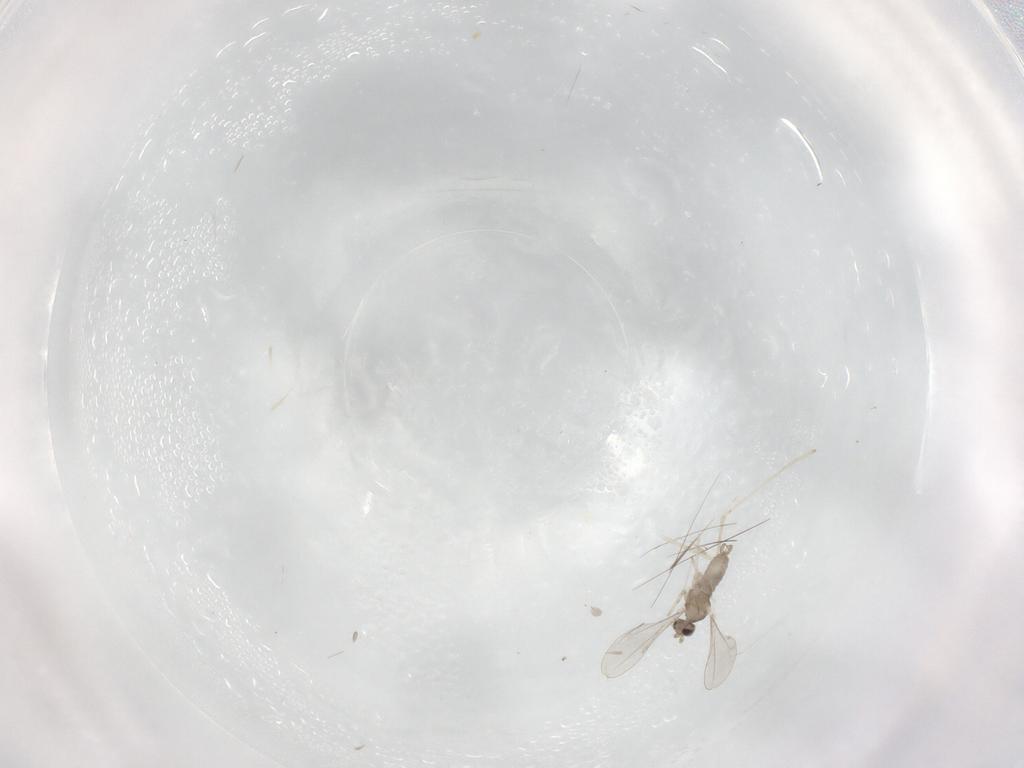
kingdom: Animalia
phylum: Arthropoda
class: Insecta
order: Diptera
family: Cecidomyiidae
